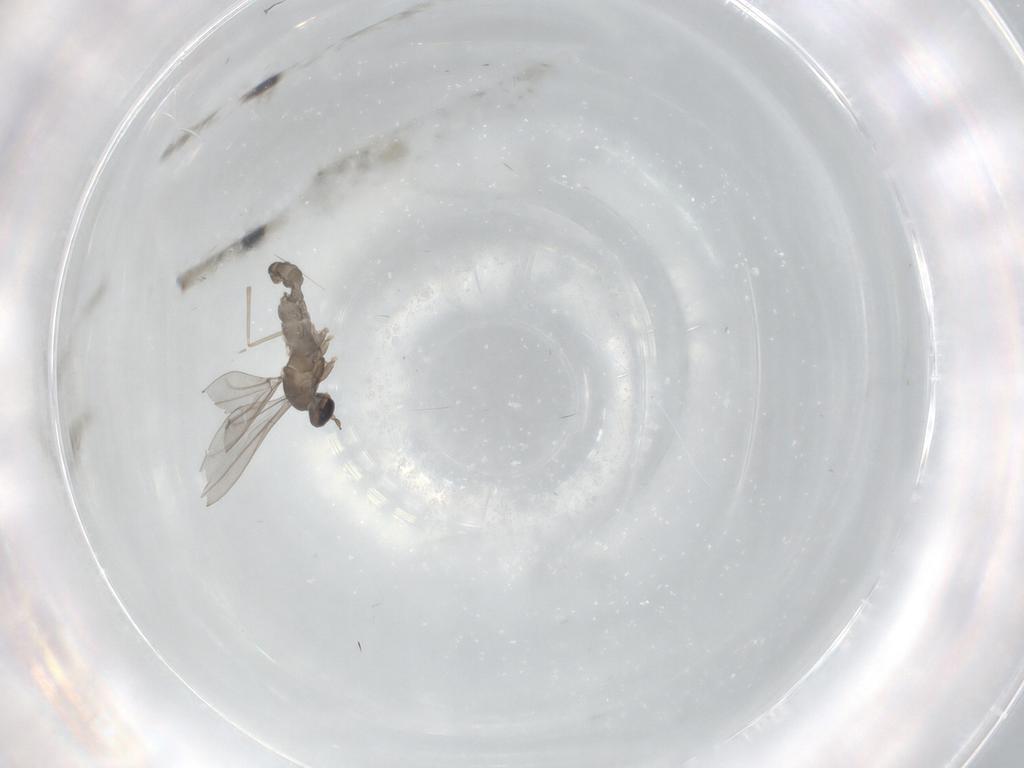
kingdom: Animalia
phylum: Arthropoda
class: Insecta
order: Diptera
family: Cecidomyiidae
